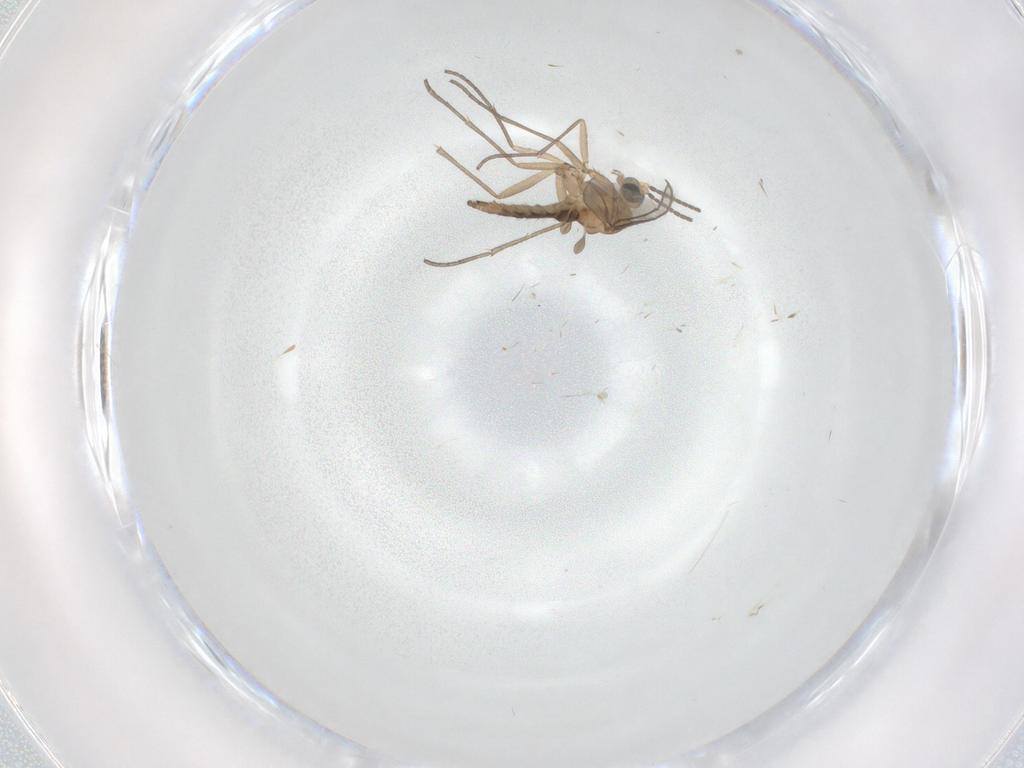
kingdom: Animalia
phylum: Arthropoda
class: Insecta
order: Diptera
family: Sciaridae
